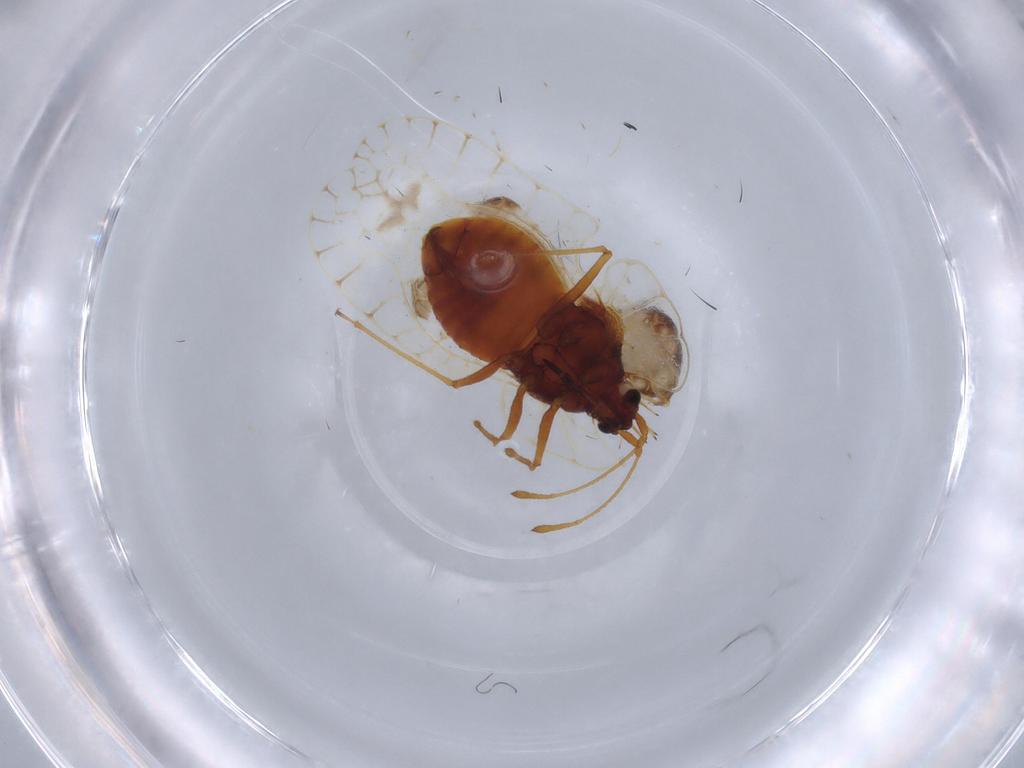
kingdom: Animalia
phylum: Arthropoda
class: Insecta
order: Hemiptera
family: Tingidae
